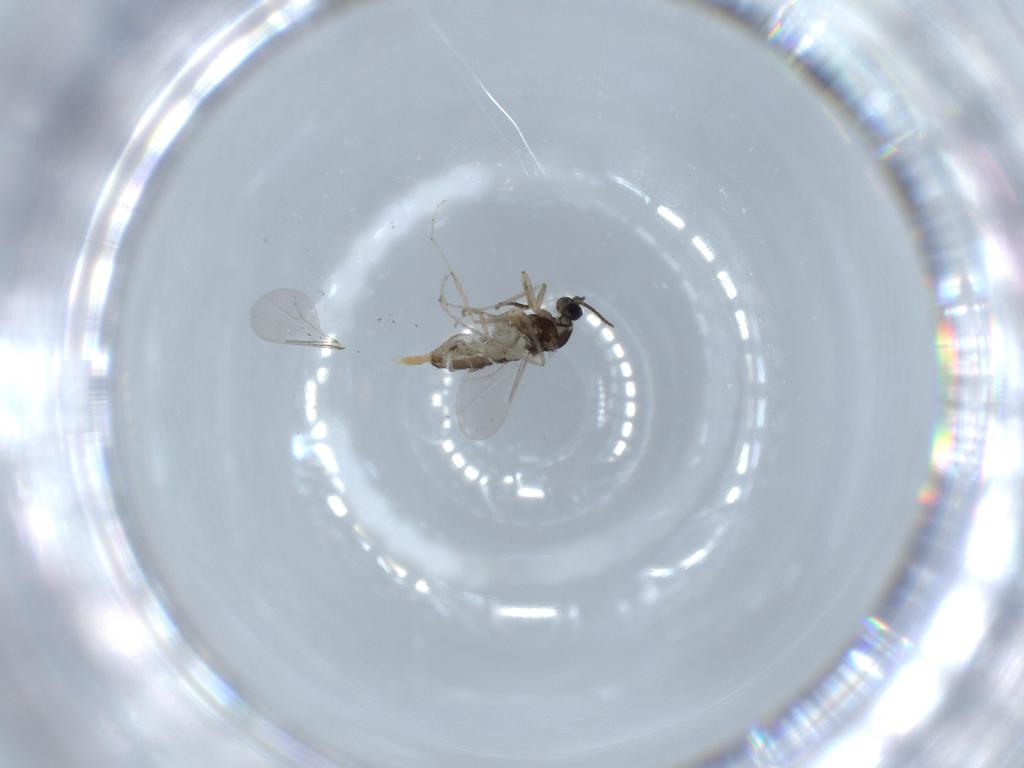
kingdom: Animalia
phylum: Arthropoda
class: Insecta
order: Diptera
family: Cecidomyiidae
